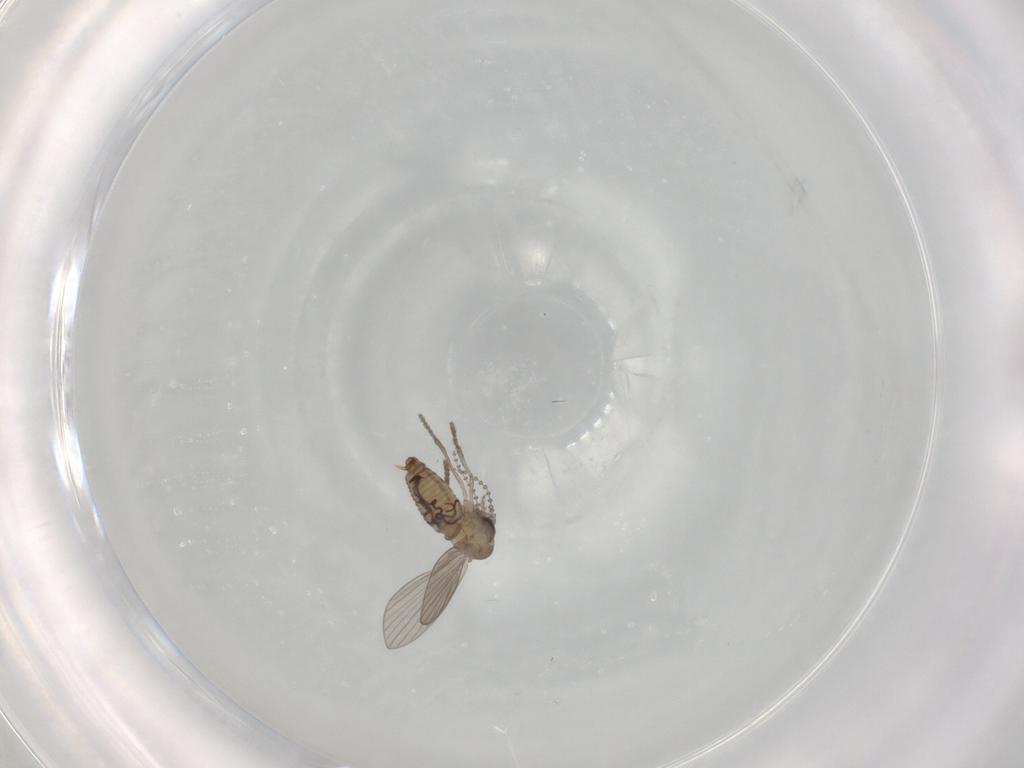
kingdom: Animalia
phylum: Arthropoda
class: Insecta
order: Diptera
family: Psychodidae
